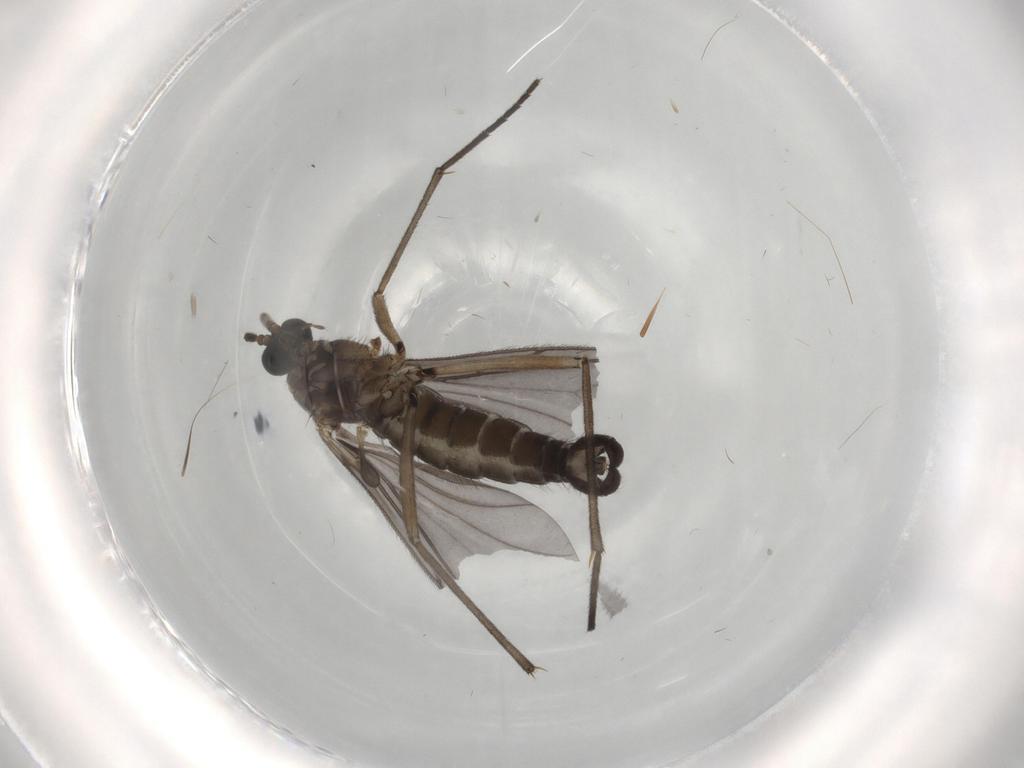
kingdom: Animalia
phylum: Arthropoda
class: Insecta
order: Diptera
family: Sciaridae
